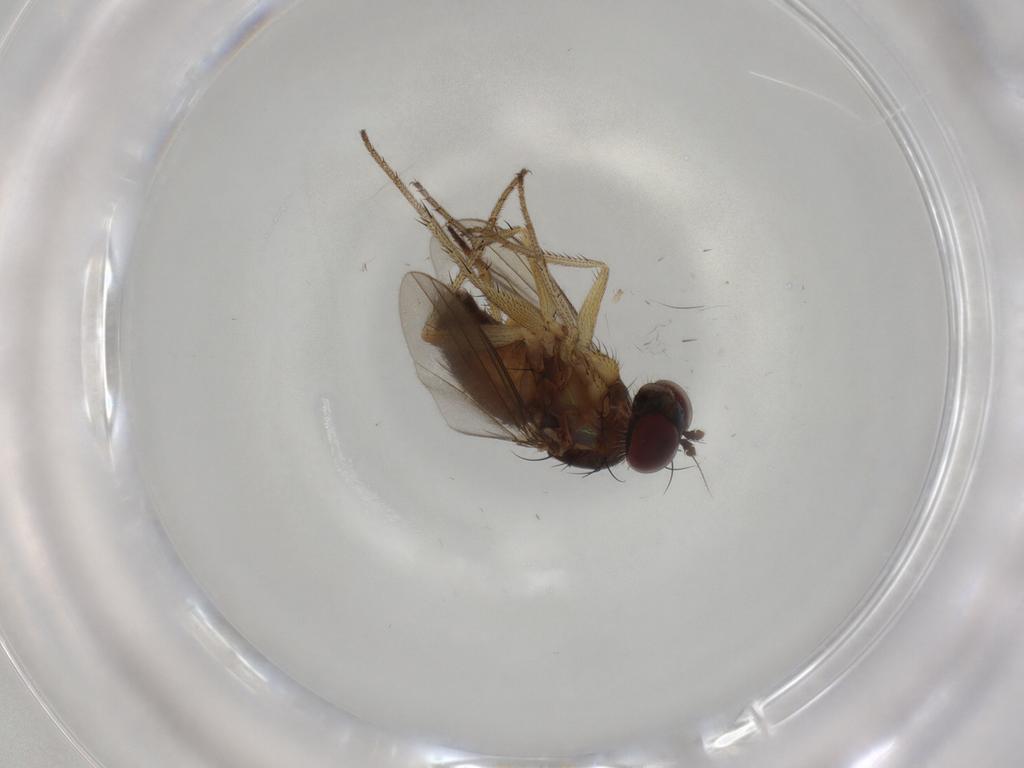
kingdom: Animalia
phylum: Arthropoda
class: Insecta
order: Diptera
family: Dolichopodidae
